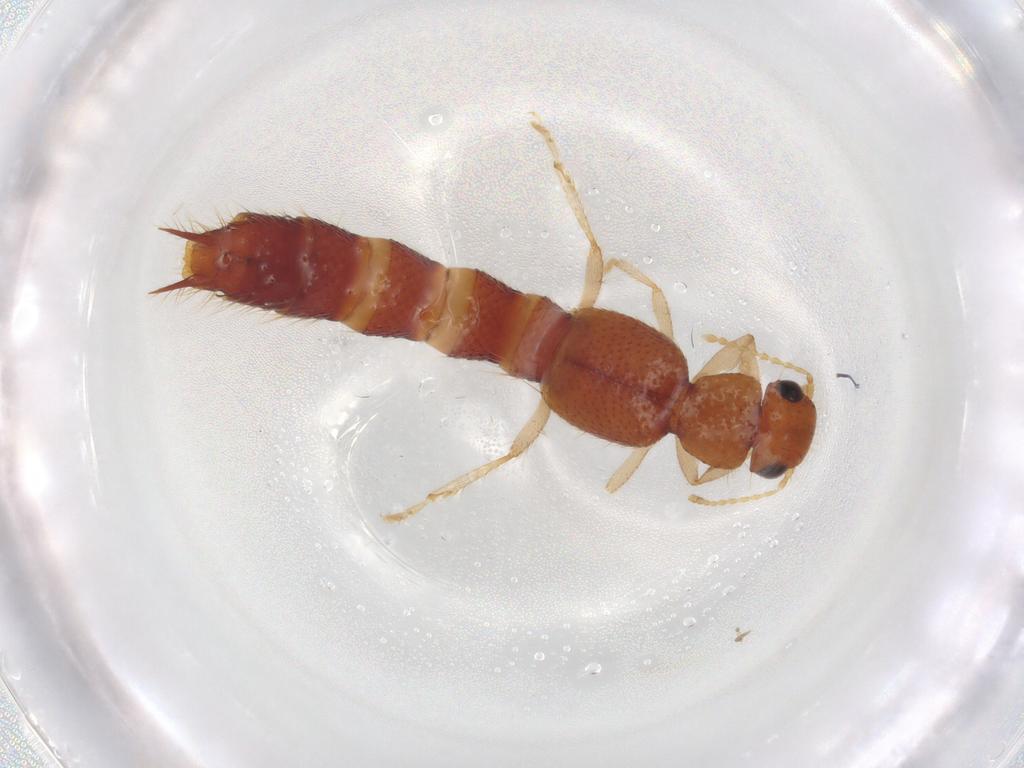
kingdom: Animalia
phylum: Arthropoda
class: Insecta
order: Coleoptera
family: Staphylinidae
